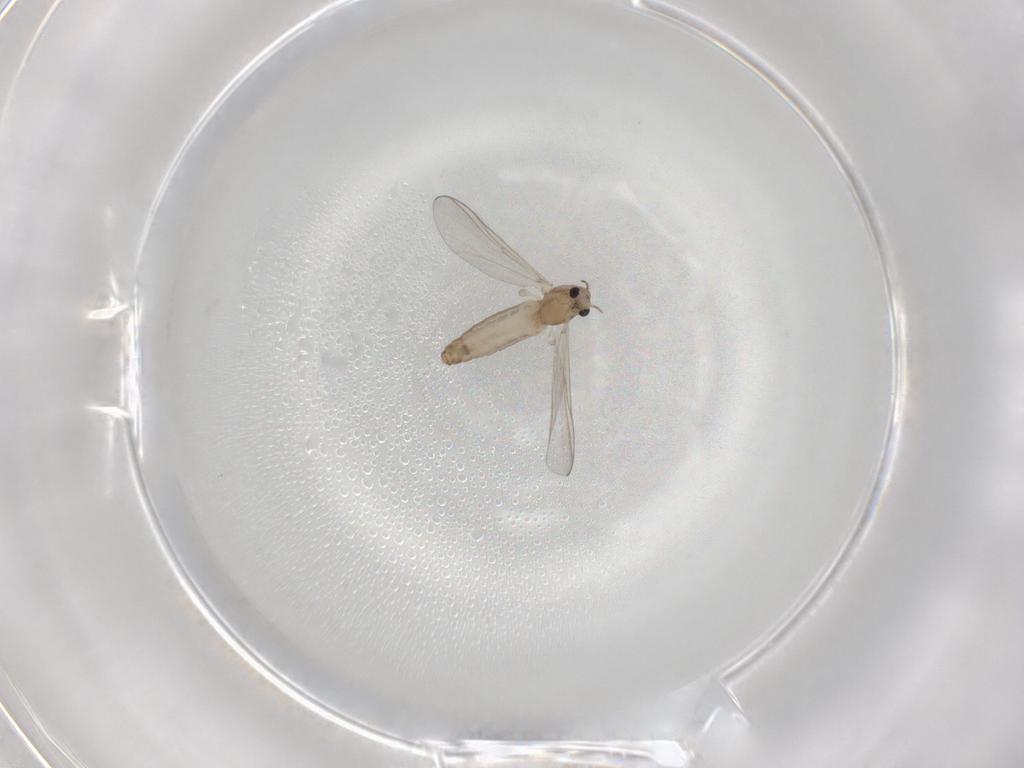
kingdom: Animalia
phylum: Arthropoda
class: Insecta
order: Diptera
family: Chironomidae
